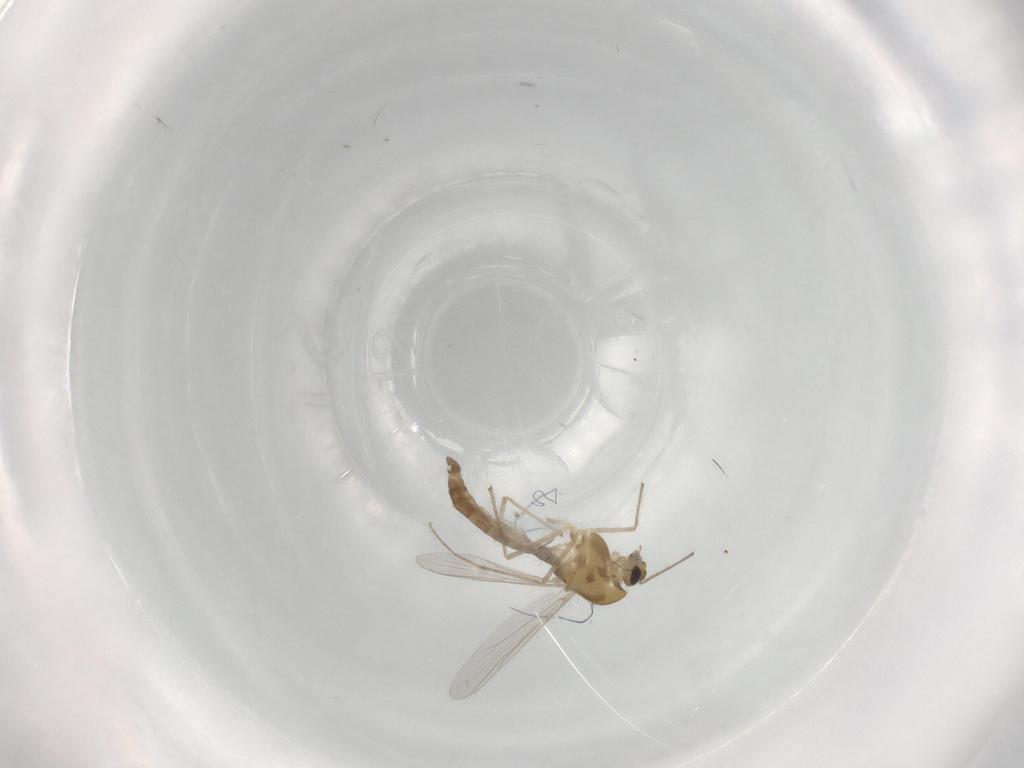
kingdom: Animalia
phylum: Arthropoda
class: Insecta
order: Diptera
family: Chironomidae
